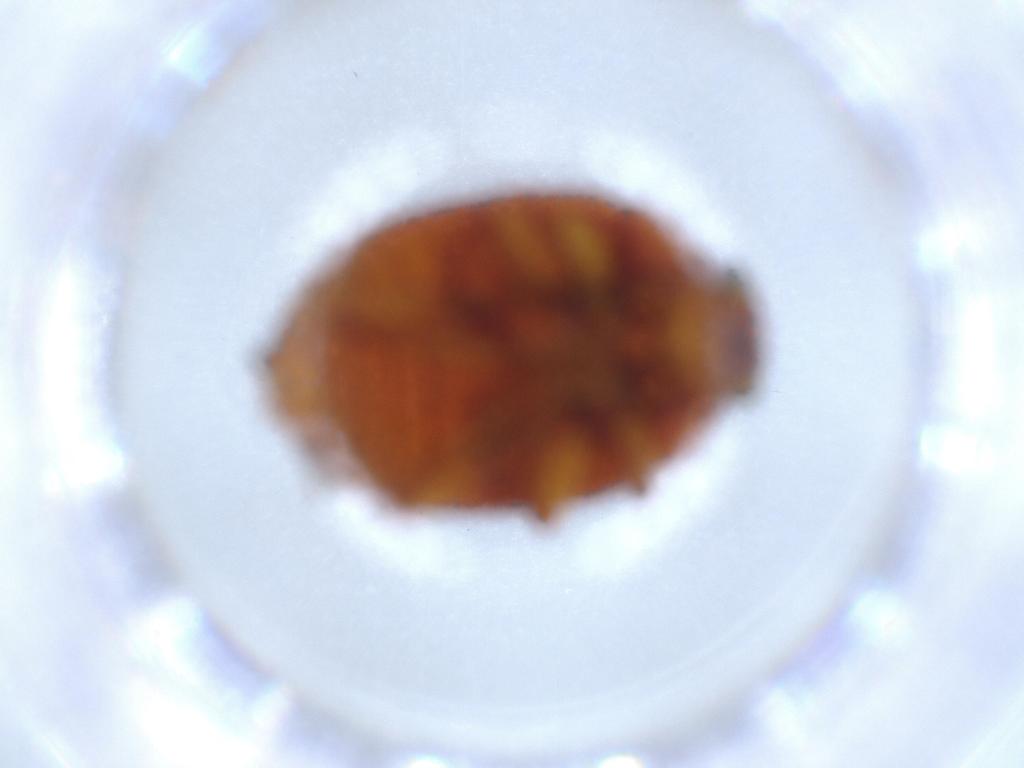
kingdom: Animalia
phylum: Arthropoda
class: Insecta
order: Coleoptera
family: Chrysomelidae
